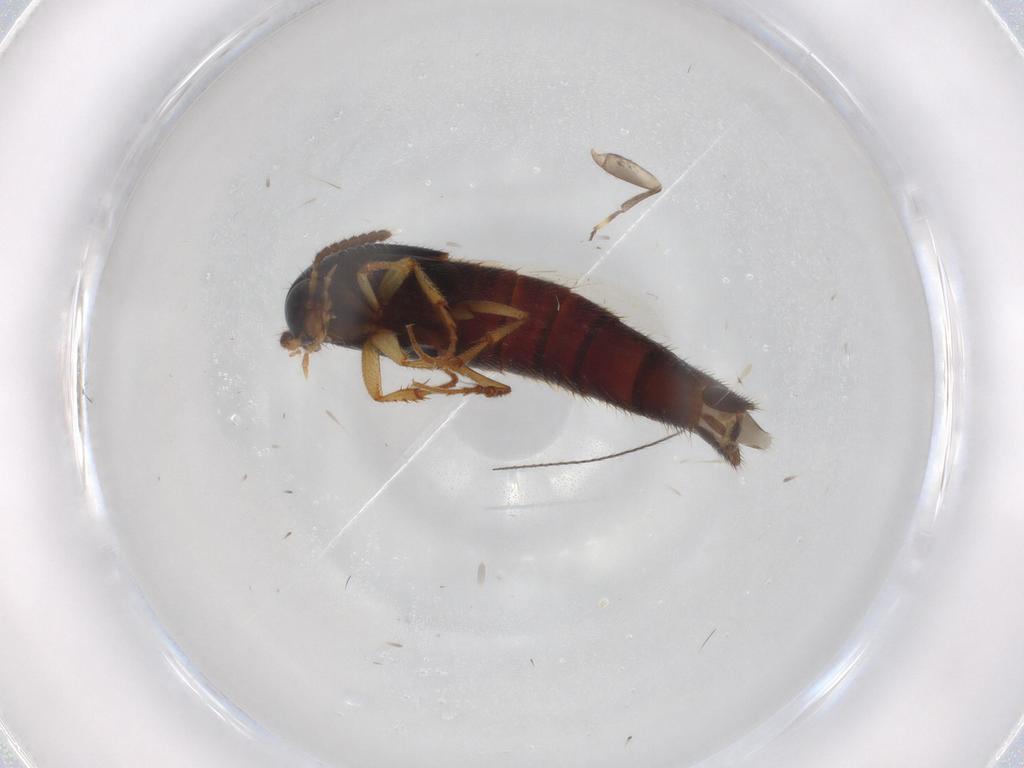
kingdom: Animalia
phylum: Arthropoda
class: Insecta
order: Coleoptera
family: Staphylinidae
